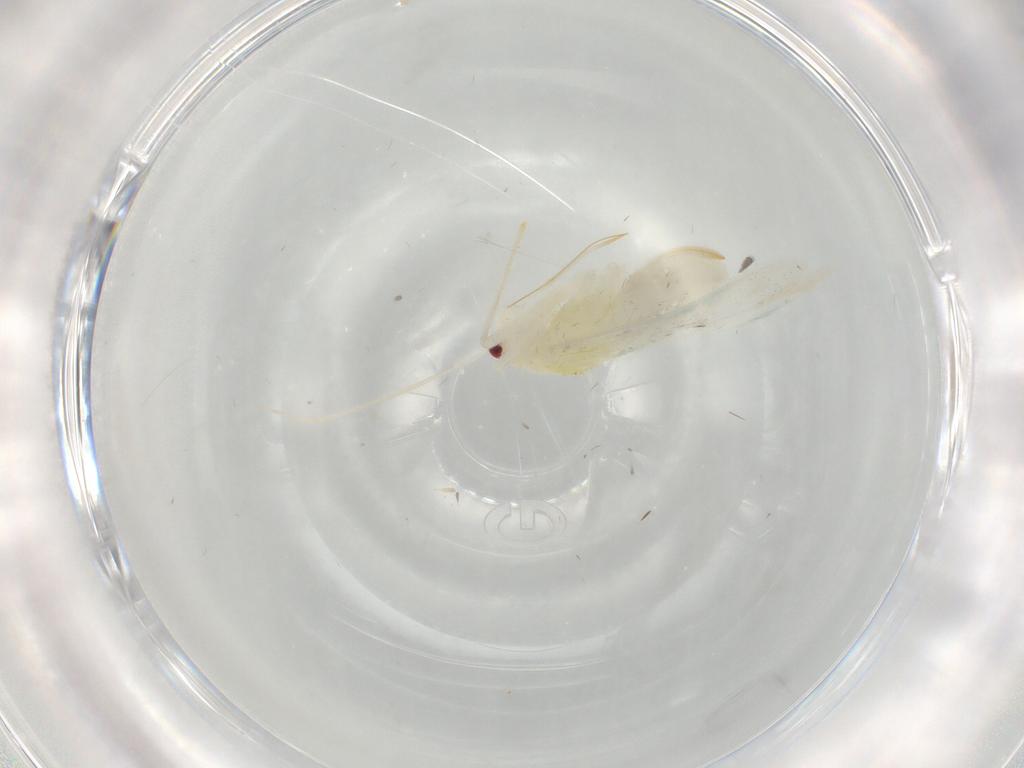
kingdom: Animalia
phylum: Arthropoda
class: Insecta
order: Hemiptera
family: Miridae
